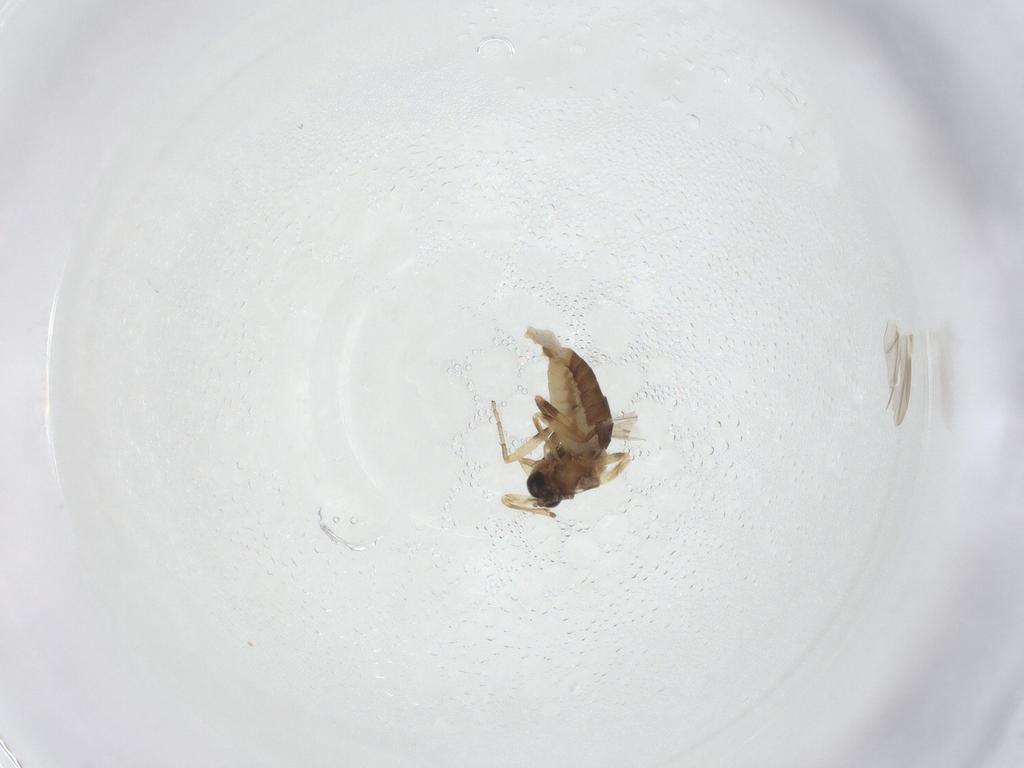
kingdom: Animalia
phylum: Arthropoda
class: Insecta
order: Diptera
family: Ceratopogonidae
